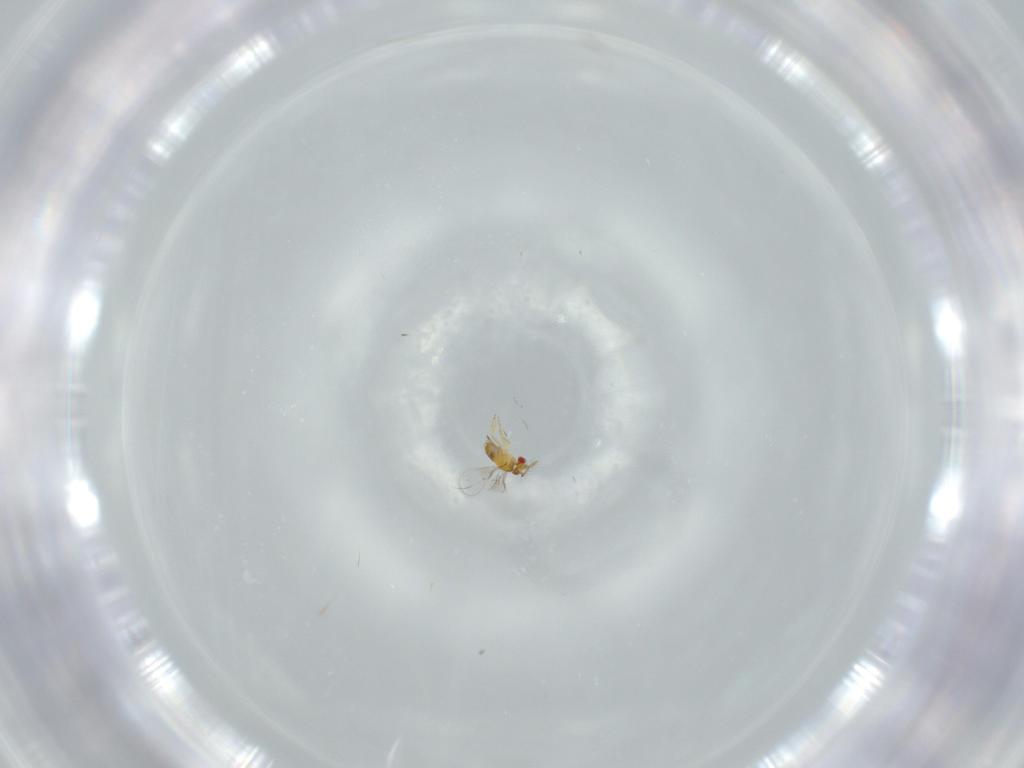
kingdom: Animalia
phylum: Arthropoda
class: Insecta
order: Hymenoptera
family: Trichogrammatidae
